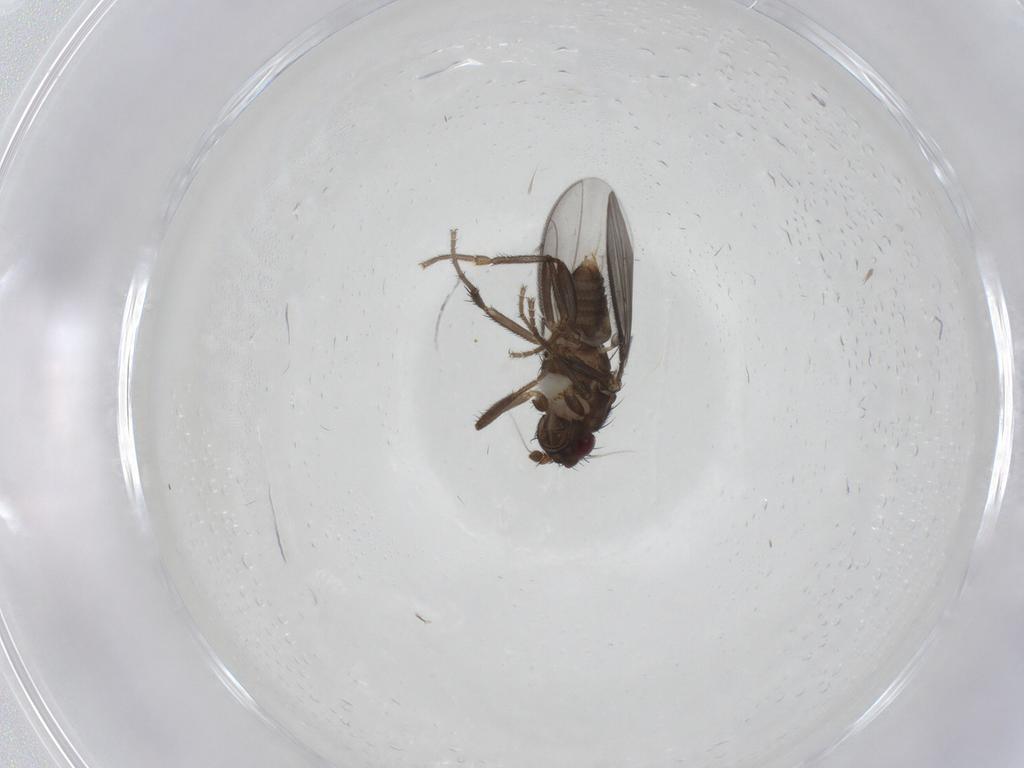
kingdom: Animalia
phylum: Arthropoda
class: Insecta
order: Diptera
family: Sphaeroceridae
